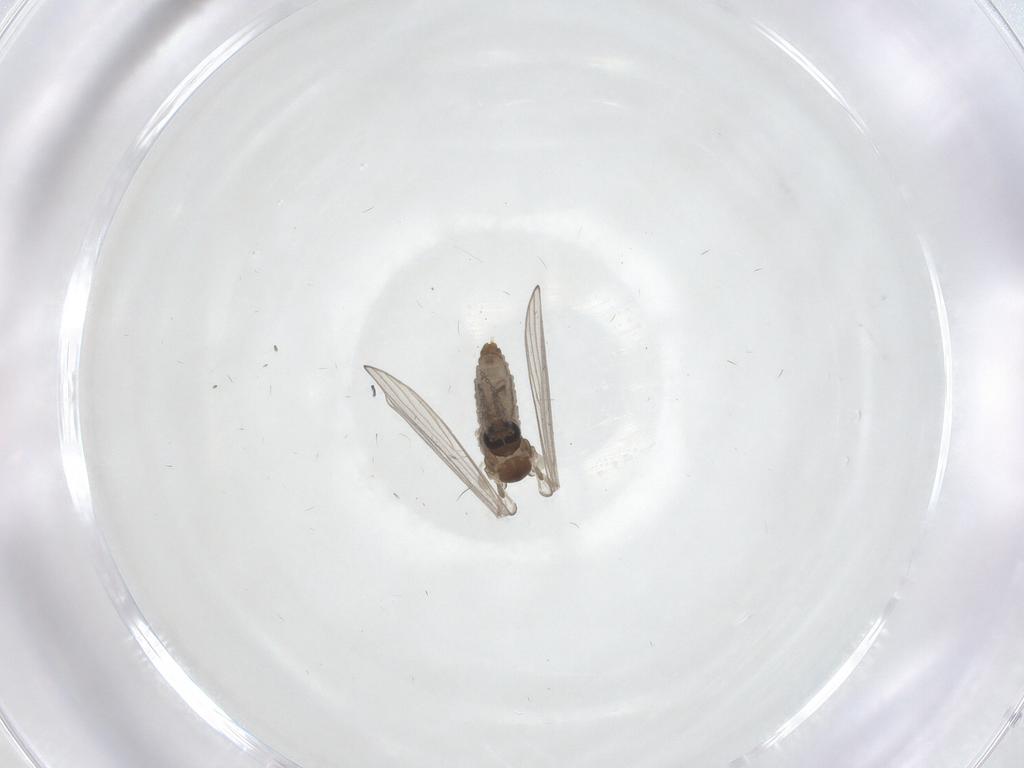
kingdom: Animalia
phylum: Arthropoda
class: Insecta
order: Diptera
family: Psychodidae
